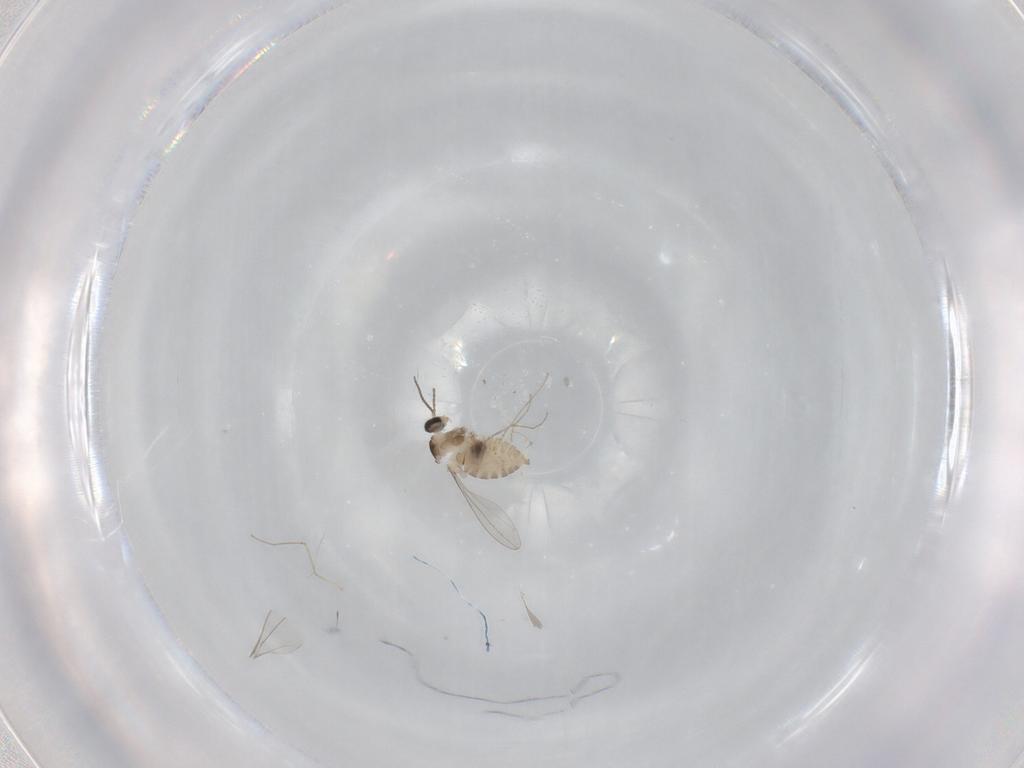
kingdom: Animalia
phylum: Arthropoda
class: Insecta
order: Diptera
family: Cecidomyiidae
